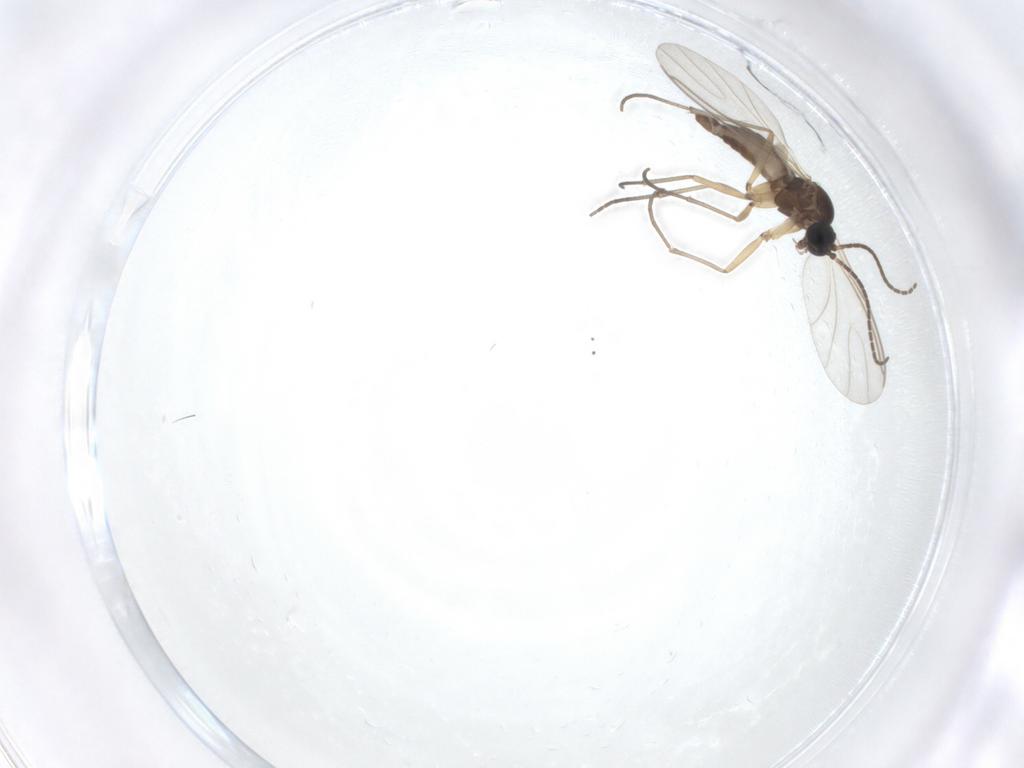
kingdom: Animalia
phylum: Arthropoda
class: Insecta
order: Diptera
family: Sciaridae
